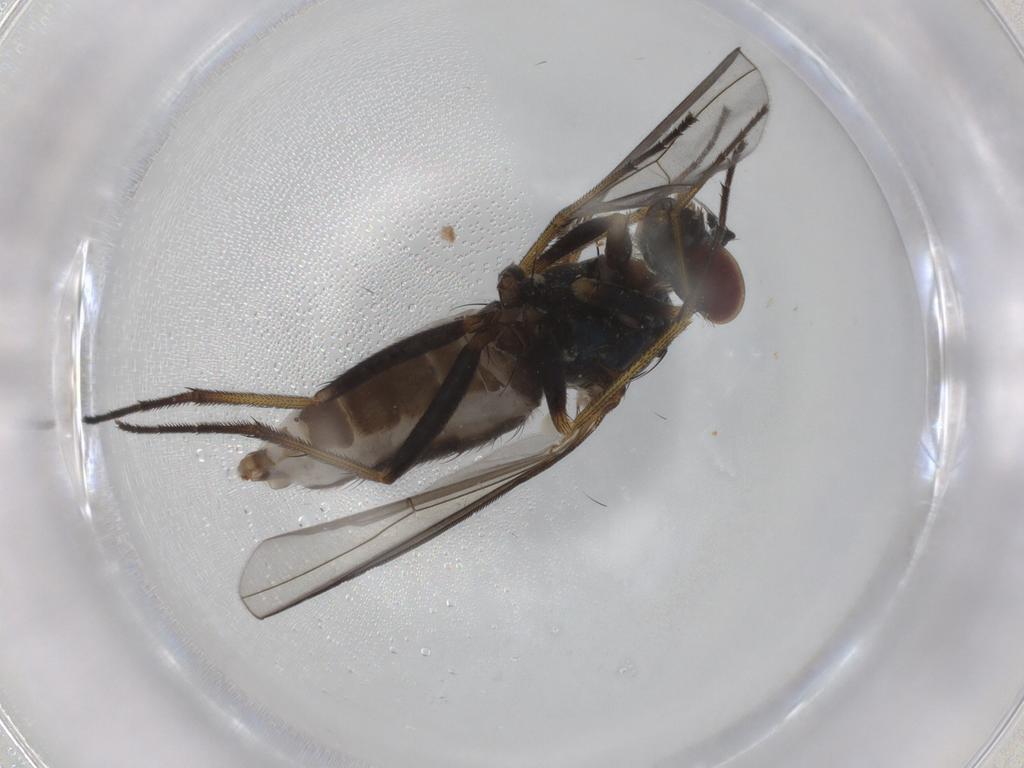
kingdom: Animalia
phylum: Arthropoda
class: Insecta
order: Diptera
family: Dolichopodidae
